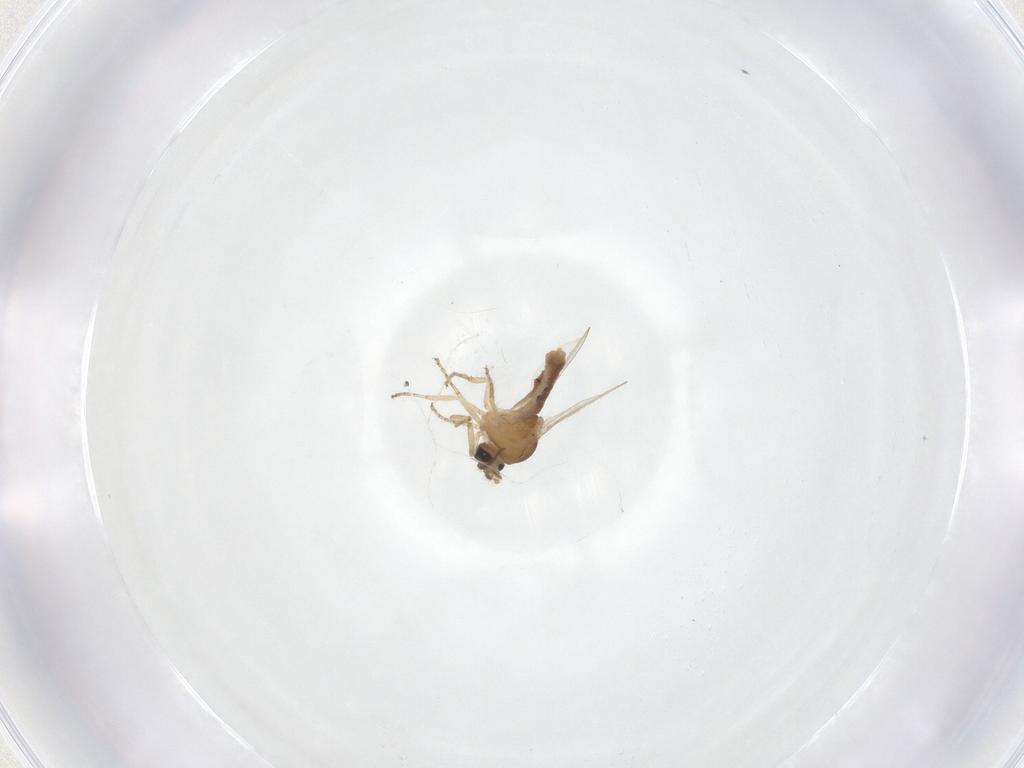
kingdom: Animalia
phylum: Arthropoda
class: Insecta
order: Diptera
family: Ceratopogonidae
